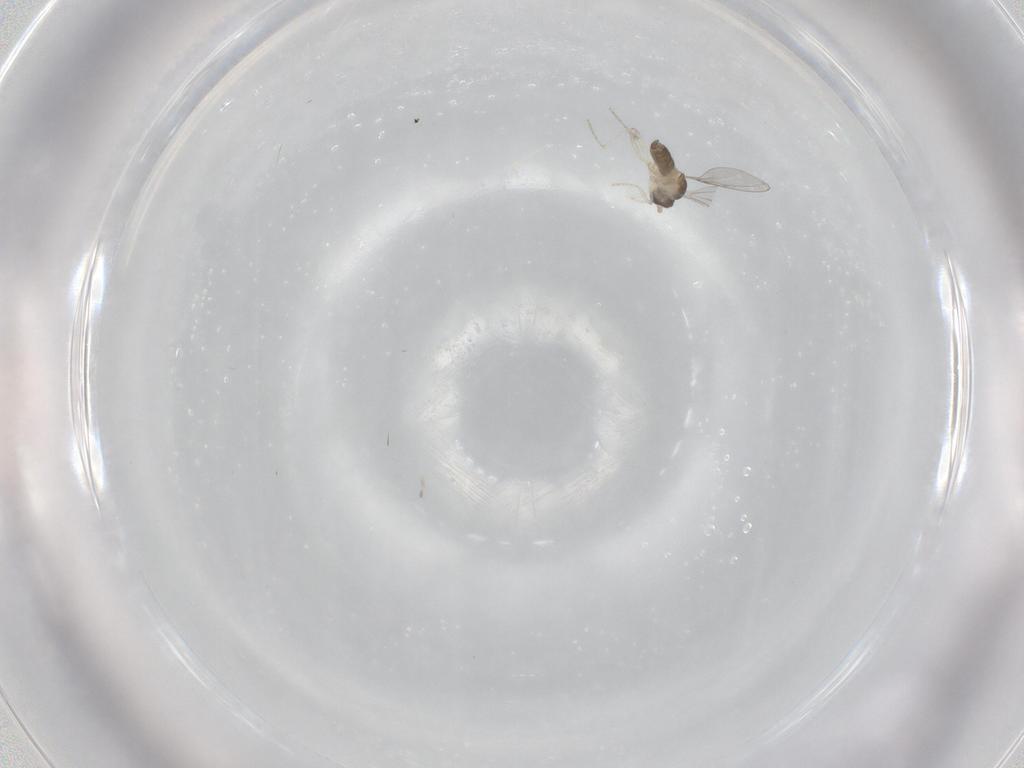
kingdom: Animalia
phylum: Arthropoda
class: Insecta
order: Diptera
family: Cecidomyiidae
